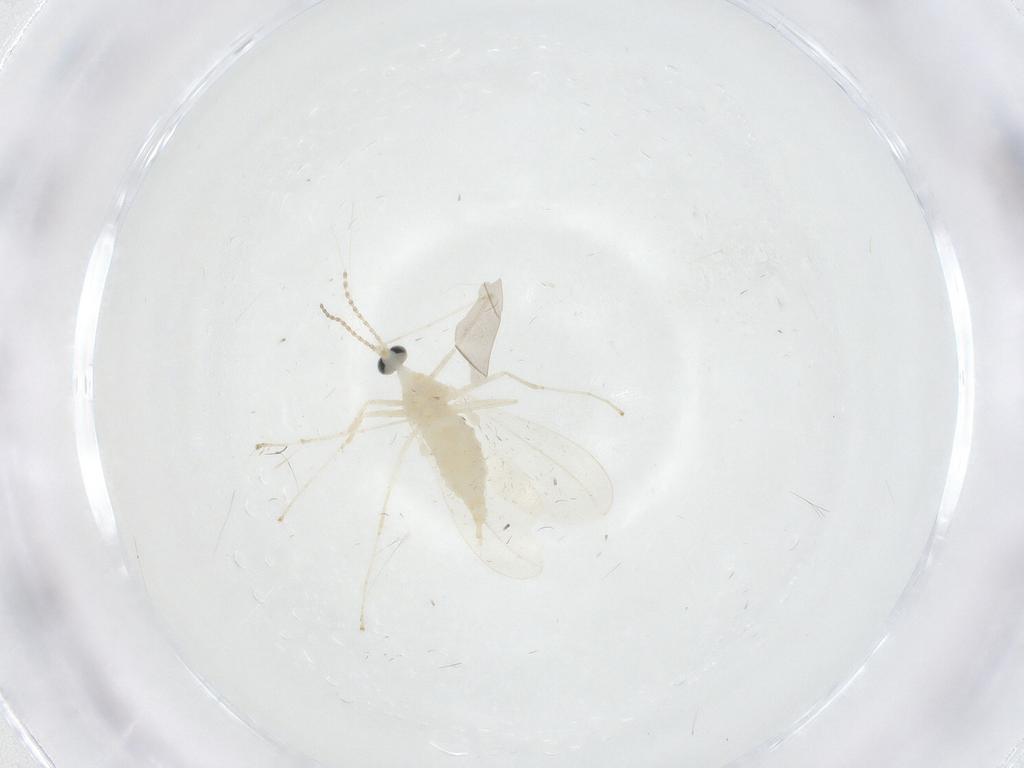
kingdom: Animalia
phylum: Arthropoda
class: Insecta
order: Diptera
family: Cecidomyiidae
